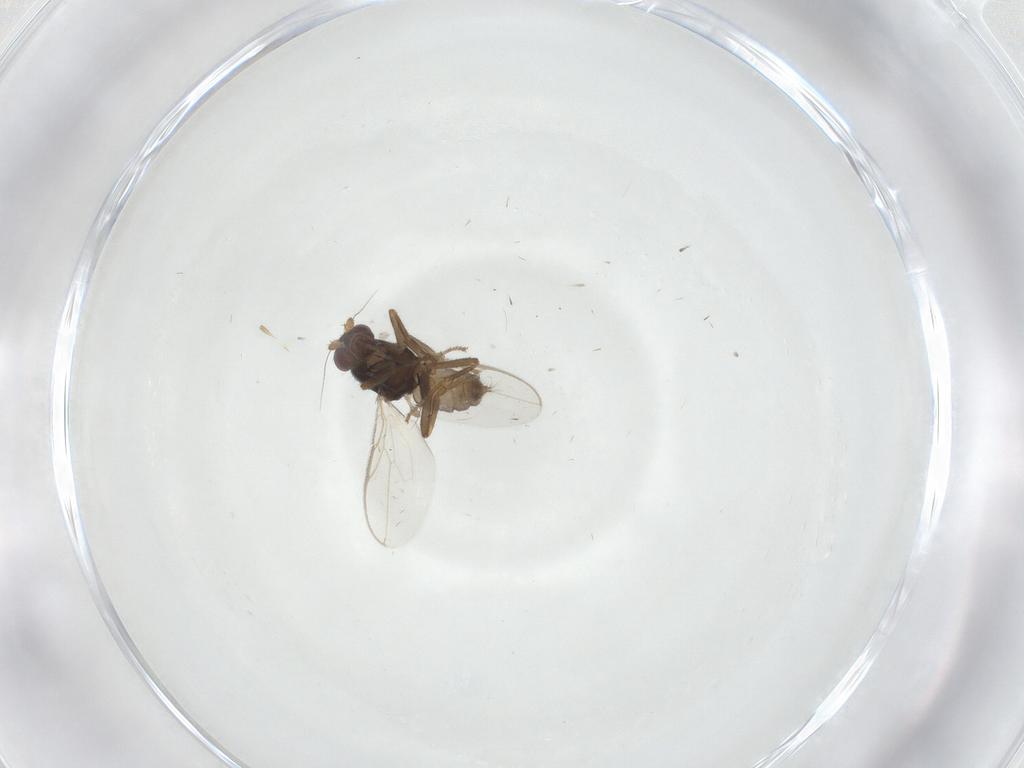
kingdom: Animalia
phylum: Arthropoda
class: Insecta
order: Diptera
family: Sphaeroceridae
